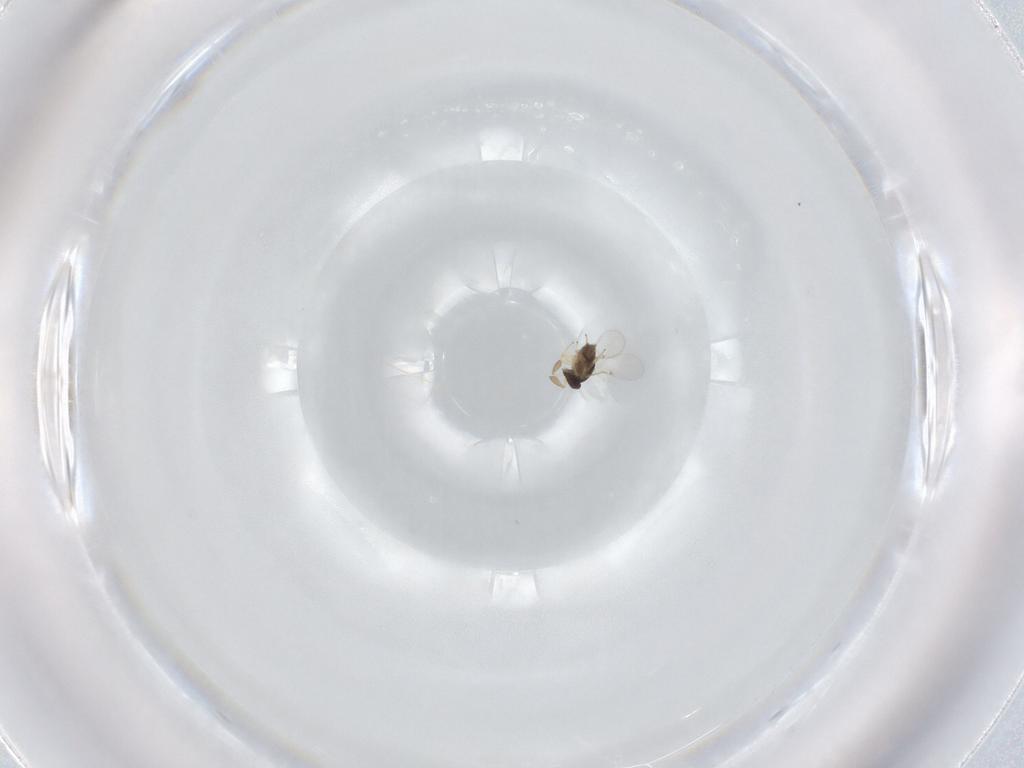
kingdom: Animalia
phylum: Arthropoda
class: Insecta
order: Hymenoptera
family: Encyrtidae
